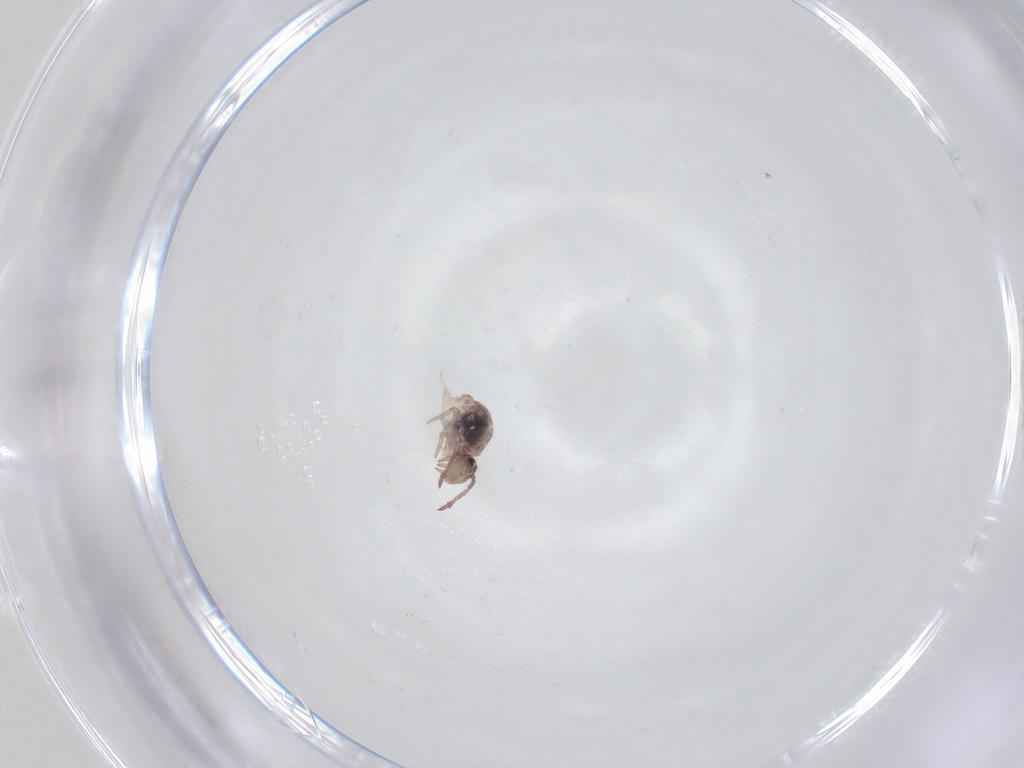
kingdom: Animalia
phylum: Arthropoda
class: Collembola
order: Symphypleona
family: Dicyrtomidae
